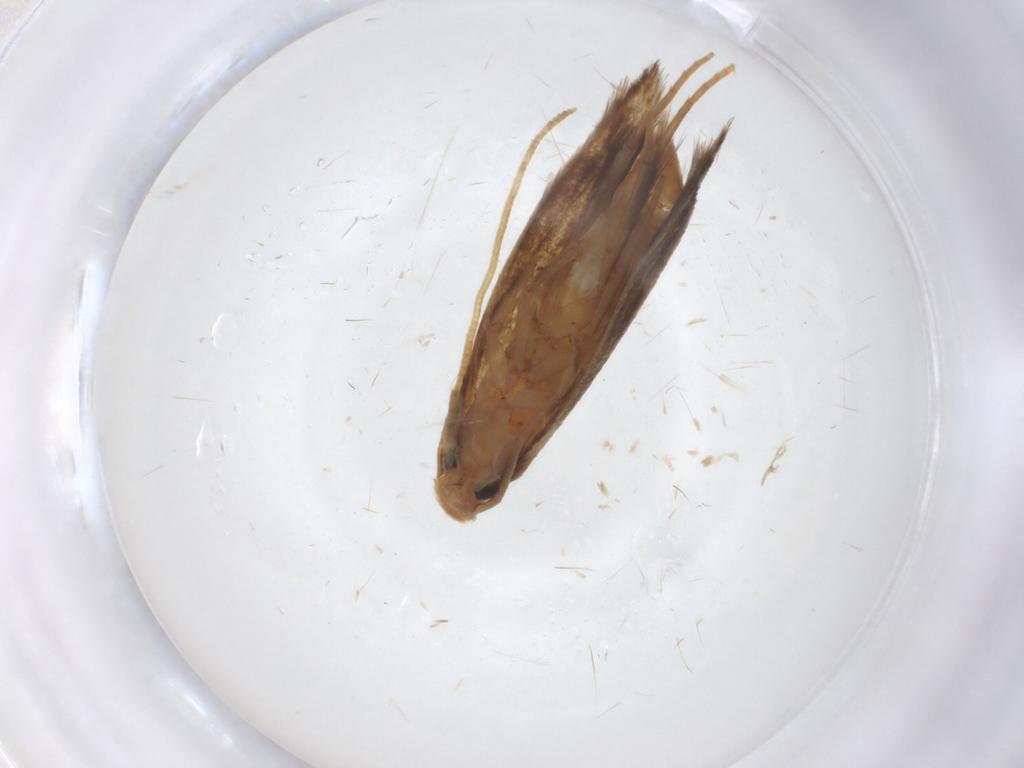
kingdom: Animalia
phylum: Arthropoda
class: Insecta
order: Lepidoptera
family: Tineidae
